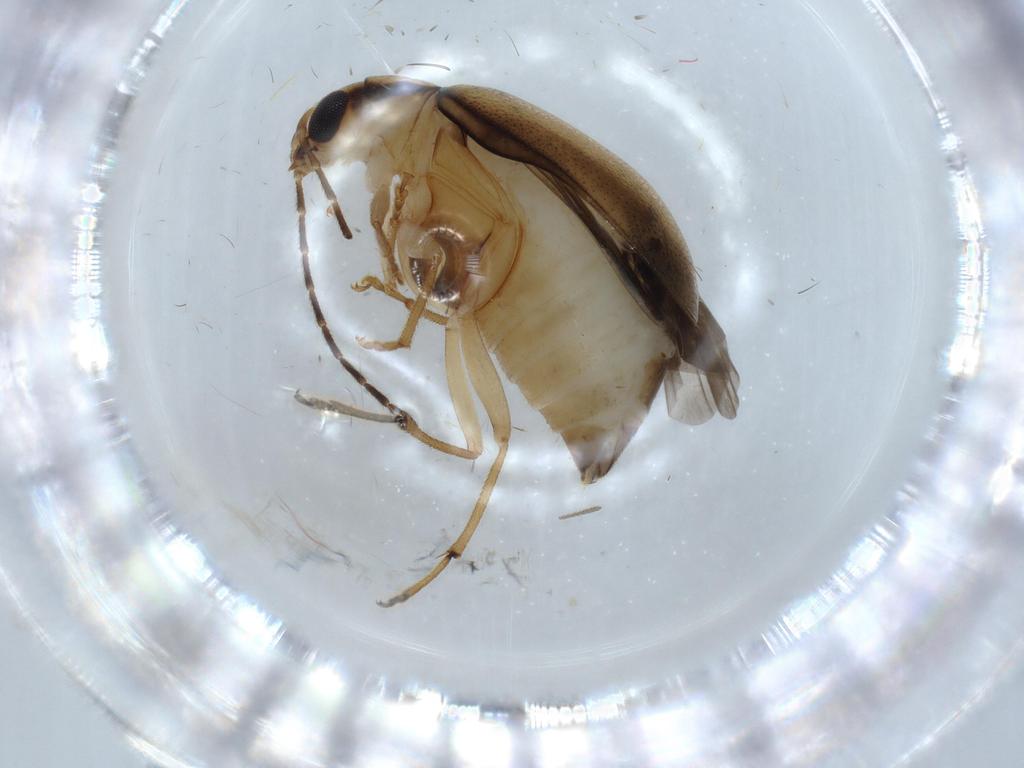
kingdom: Animalia
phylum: Arthropoda
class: Insecta
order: Coleoptera
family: Chrysomelidae
